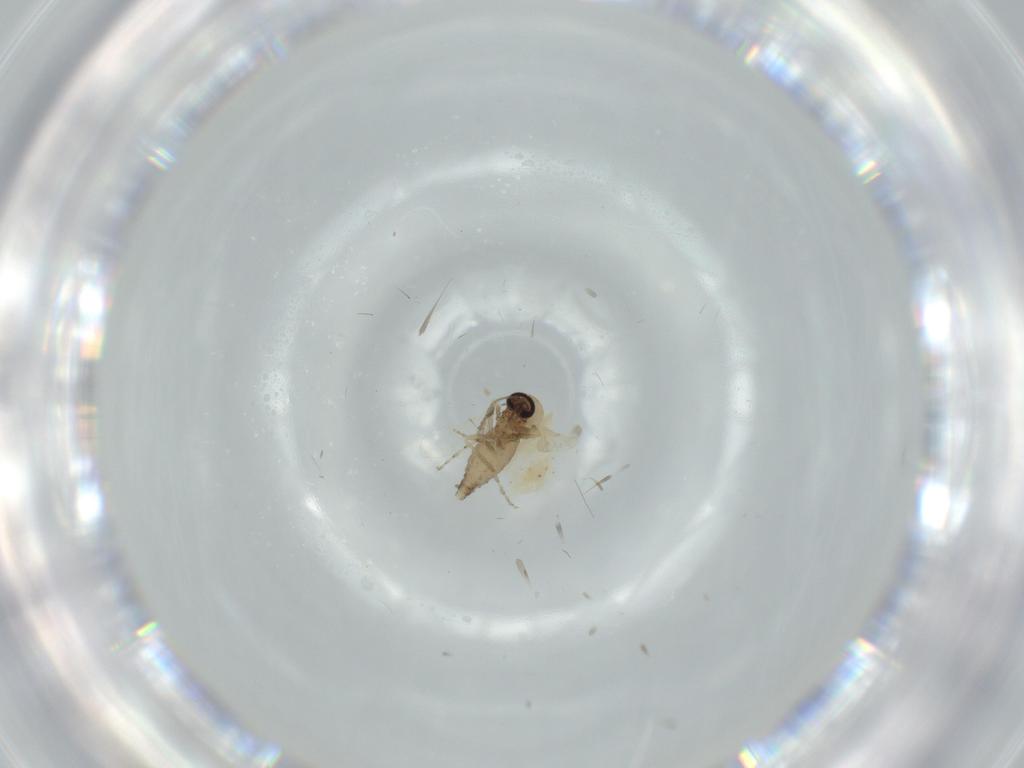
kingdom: Animalia
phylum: Arthropoda
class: Insecta
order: Diptera
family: Ceratopogonidae
